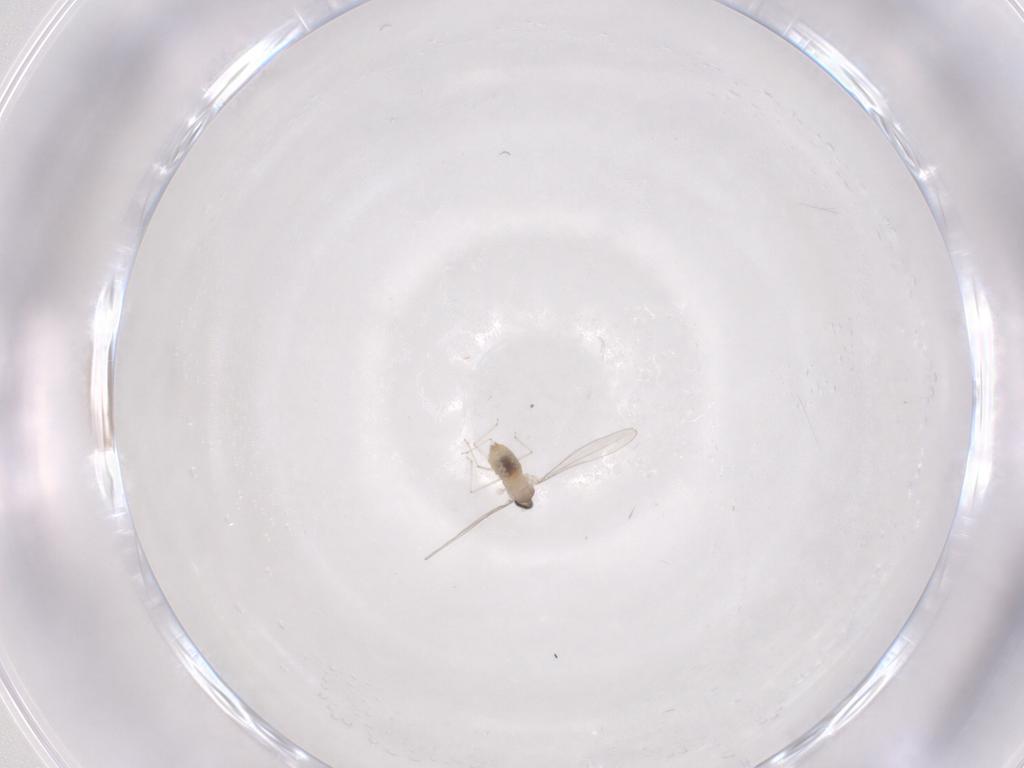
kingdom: Animalia
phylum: Arthropoda
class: Insecta
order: Diptera
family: Cecidomyiidae
